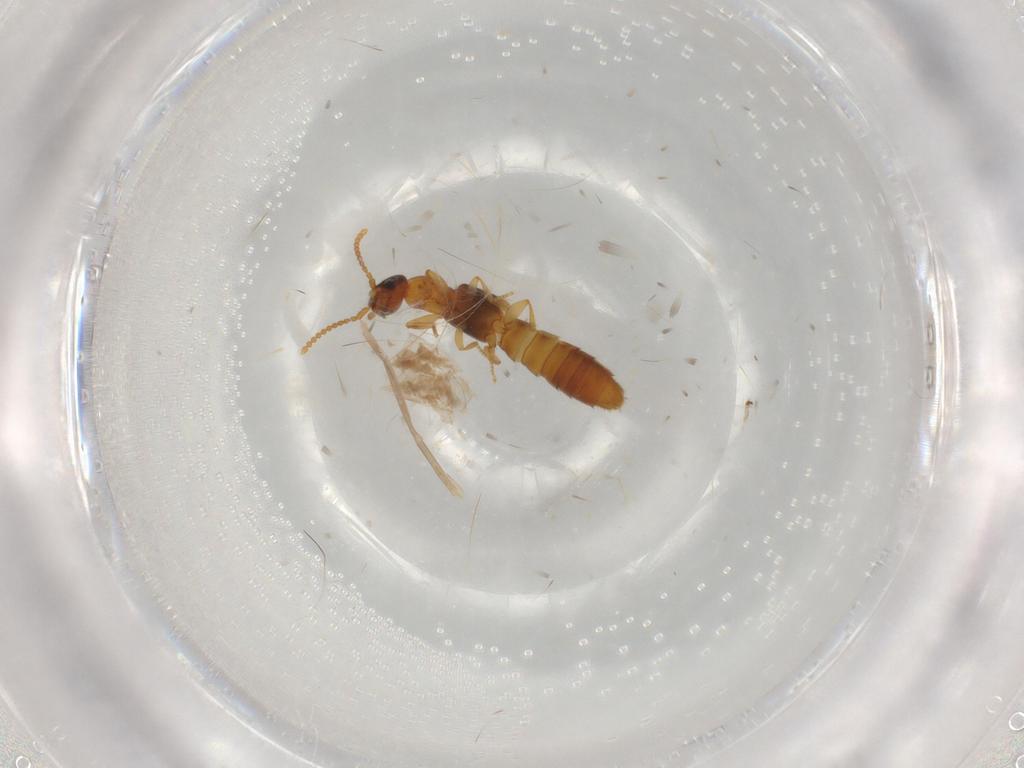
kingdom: Animalia
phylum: Arthropoda
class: Insecta
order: Coleoptera
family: Staphylinidae
